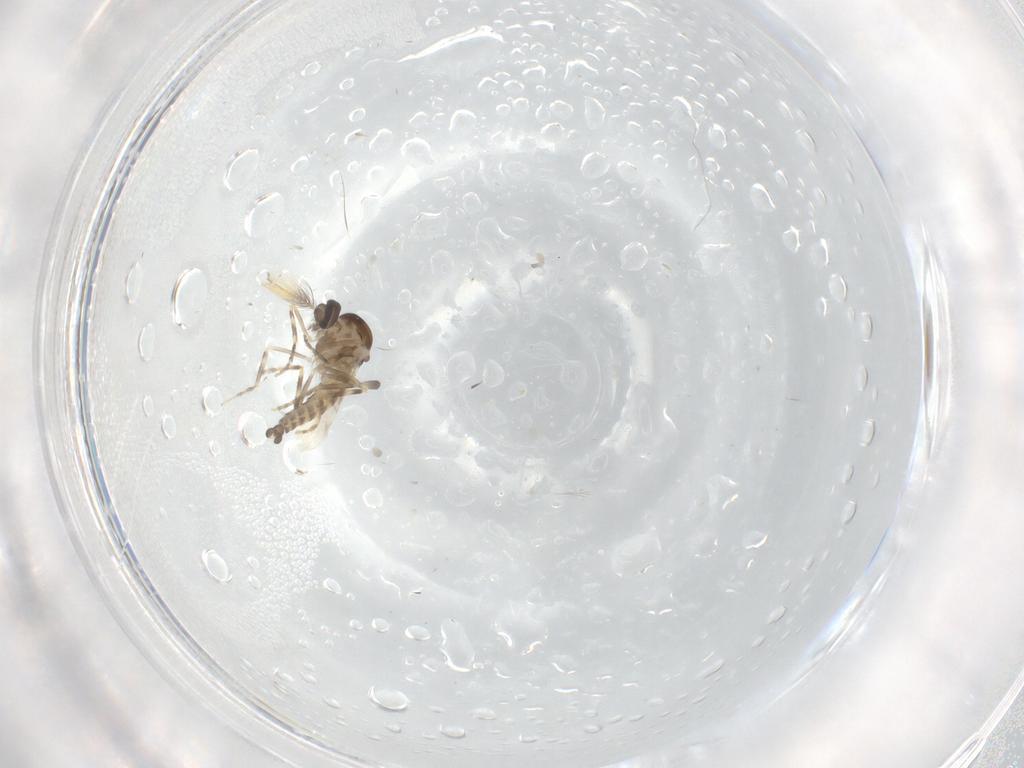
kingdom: Animalia
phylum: Arthropoda
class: Insecta
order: Diptera
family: Ceratopogonidae
